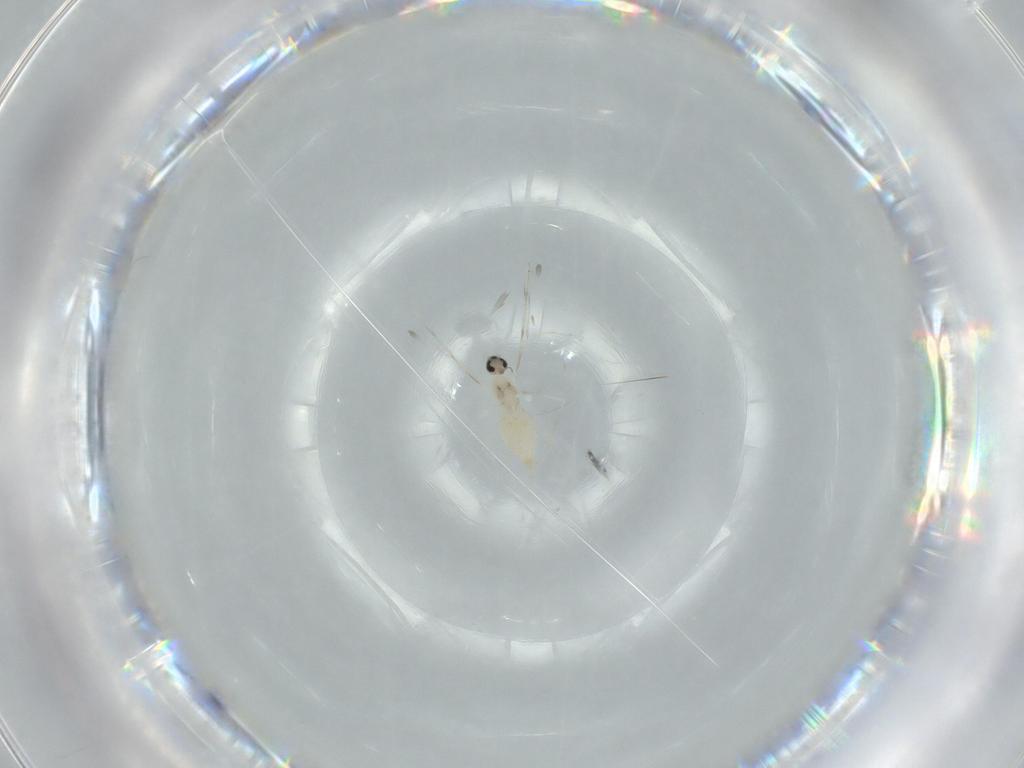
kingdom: Animalia
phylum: Arthropoda
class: Insecta
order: Diptera
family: Cecidomyiidae
